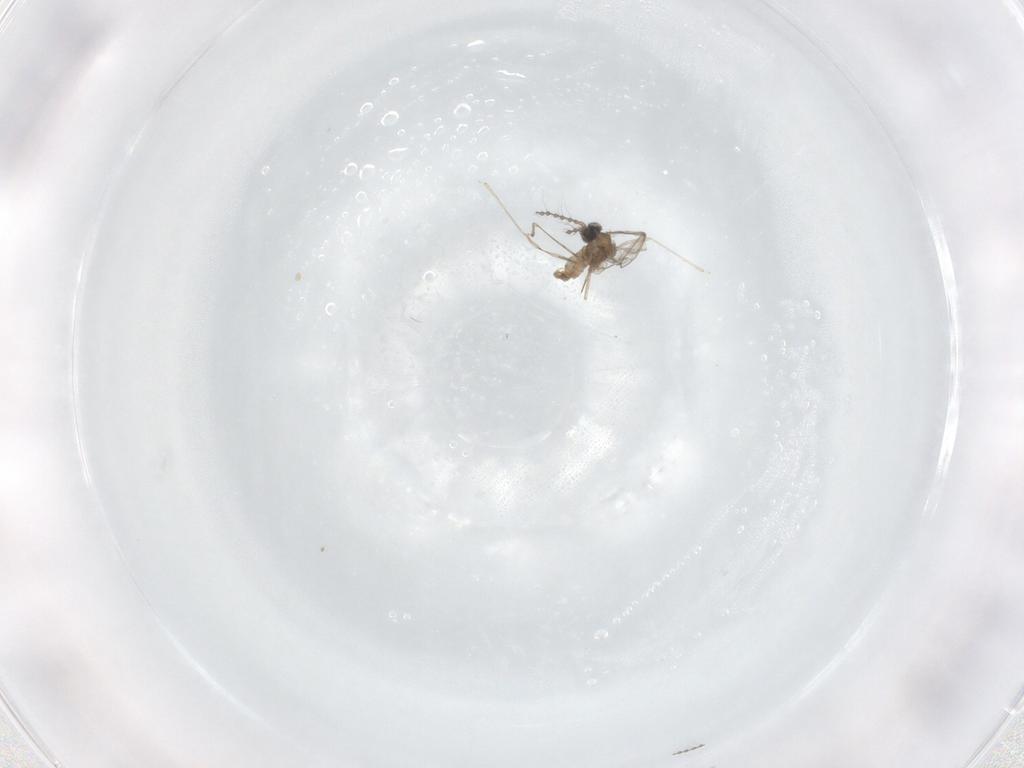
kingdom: Animalia
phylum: Arthropoda
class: Insecta
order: Diptera
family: Cecidomyiidae
